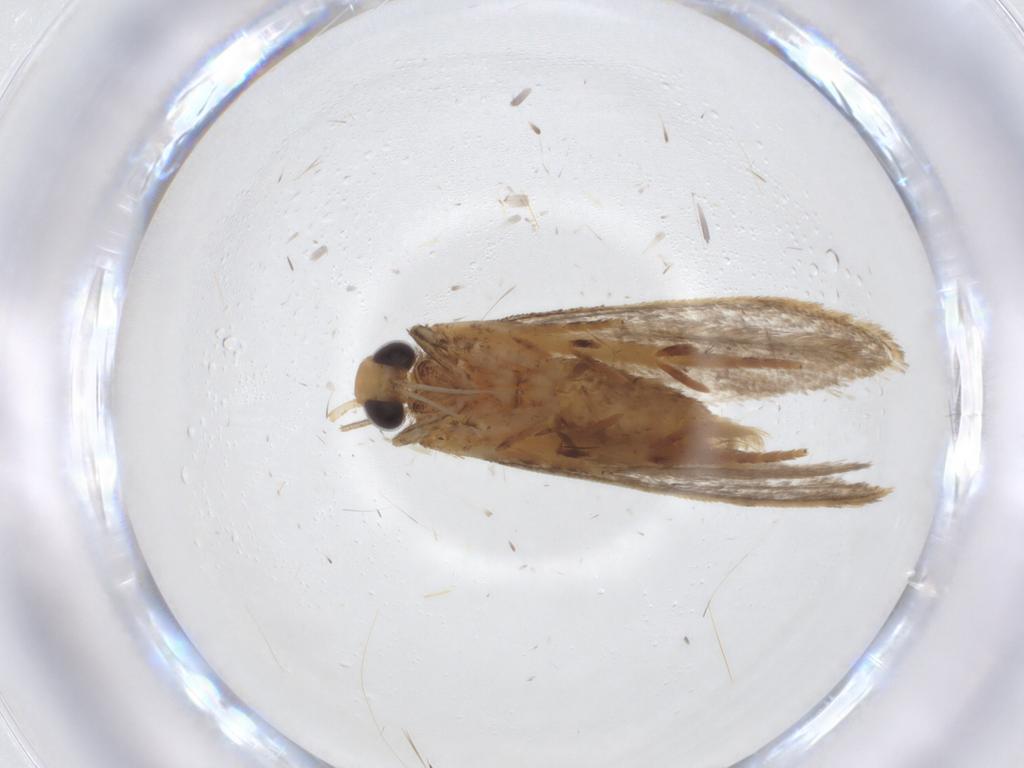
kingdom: Animalia
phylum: Arthropoda
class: Insecta
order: Lepidoptera
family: Oecophoridae
